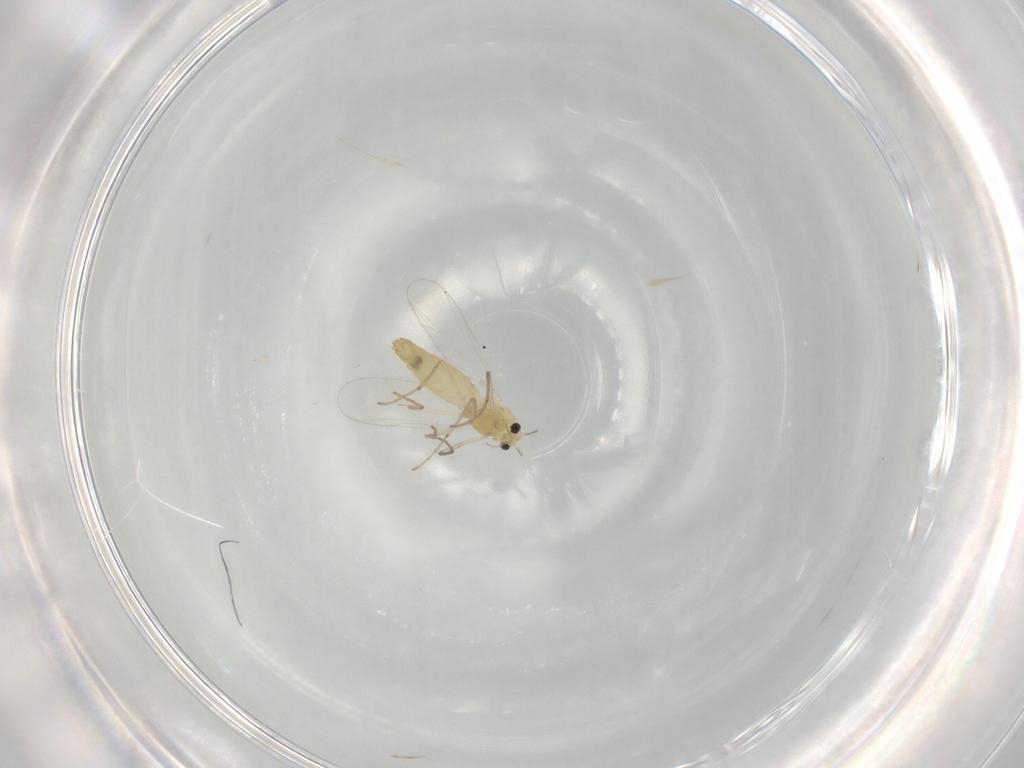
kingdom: Animalia
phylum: Arthropoda
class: Insecta
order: Diptera
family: Chironomidae
